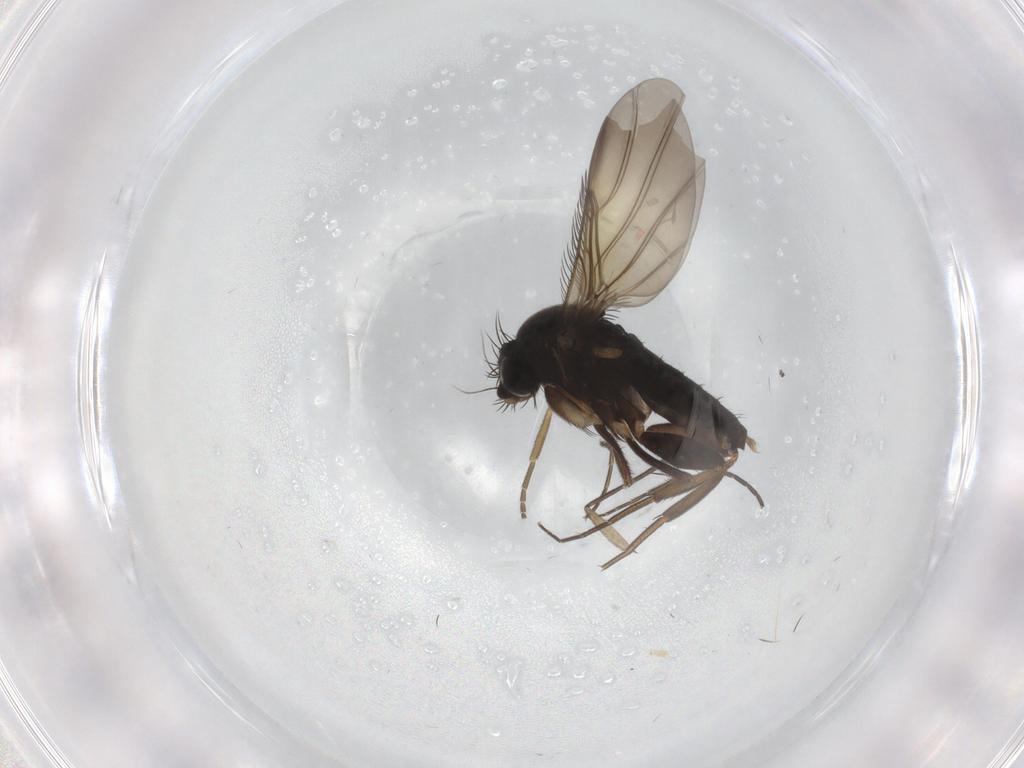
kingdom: Animalia
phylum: Arthropoda
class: Insecta
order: Diptera
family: Phoridae
